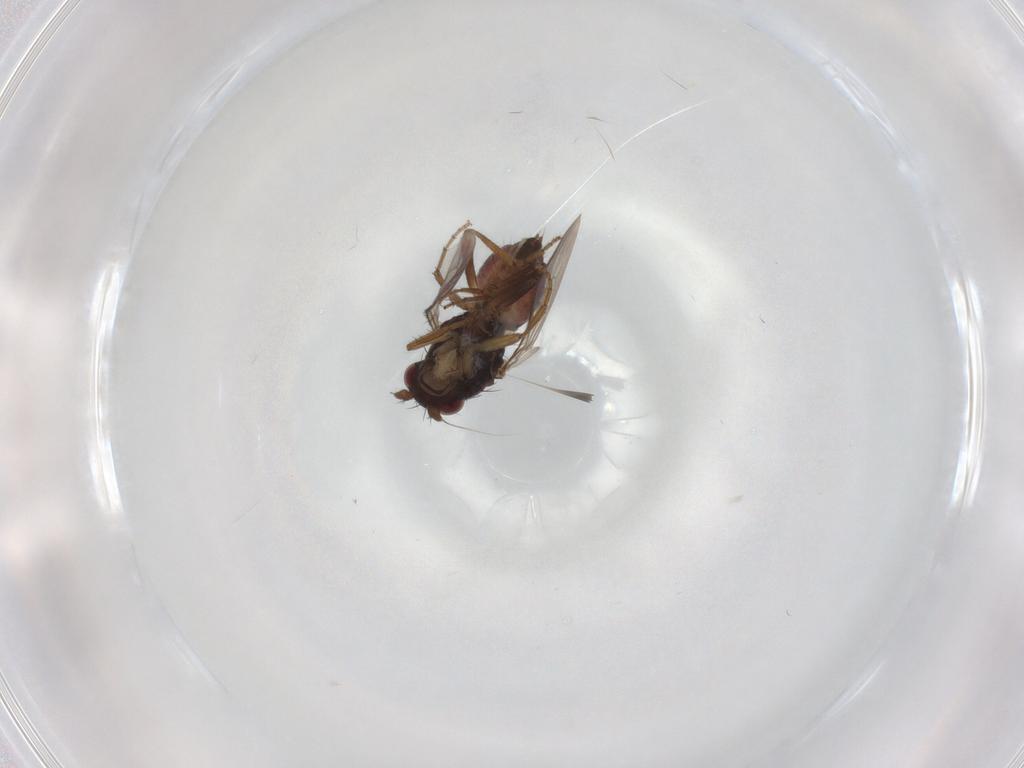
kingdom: Animalia
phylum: Arthropoda
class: Insecta
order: Diptera
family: Sphaeroceridae
